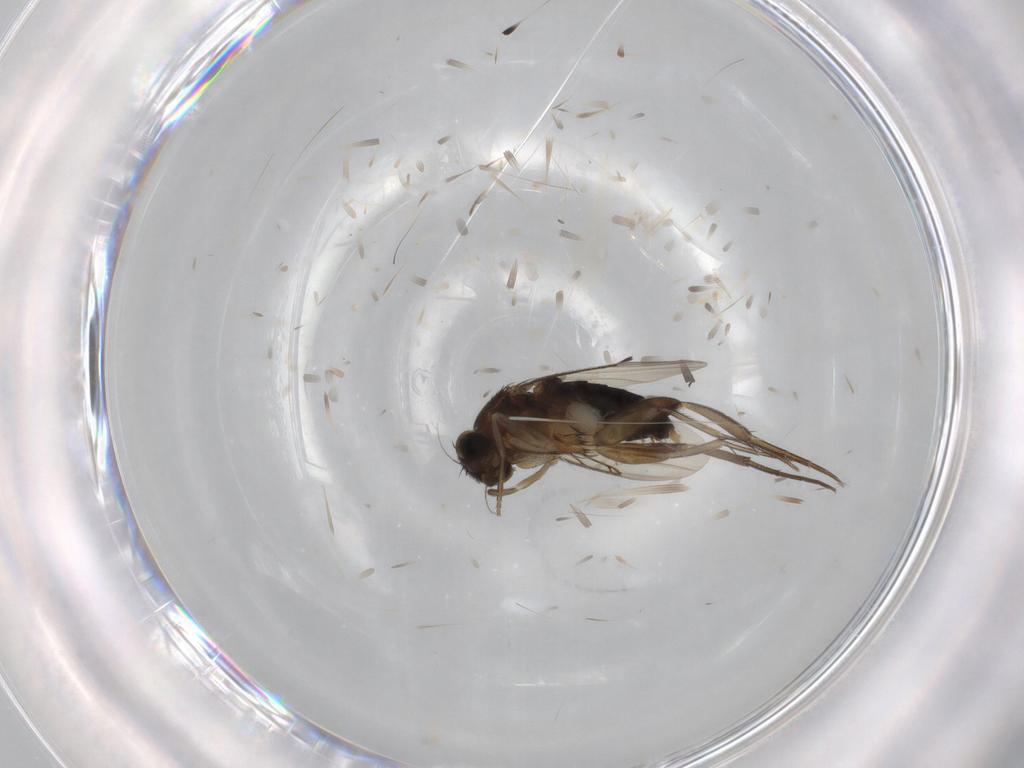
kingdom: Animalia
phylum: Arthropoda
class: Insecta
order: Diptera
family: Phoridae
